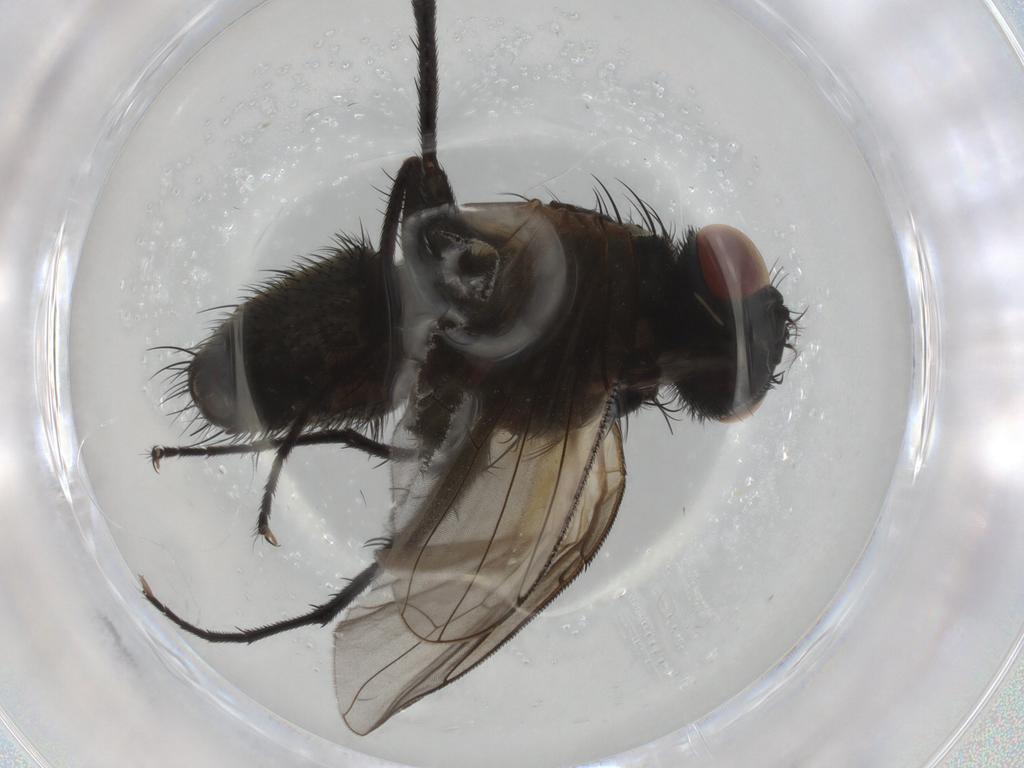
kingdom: Animalia
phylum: Arthropoda
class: Insecta
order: Diptera
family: Muscidae
